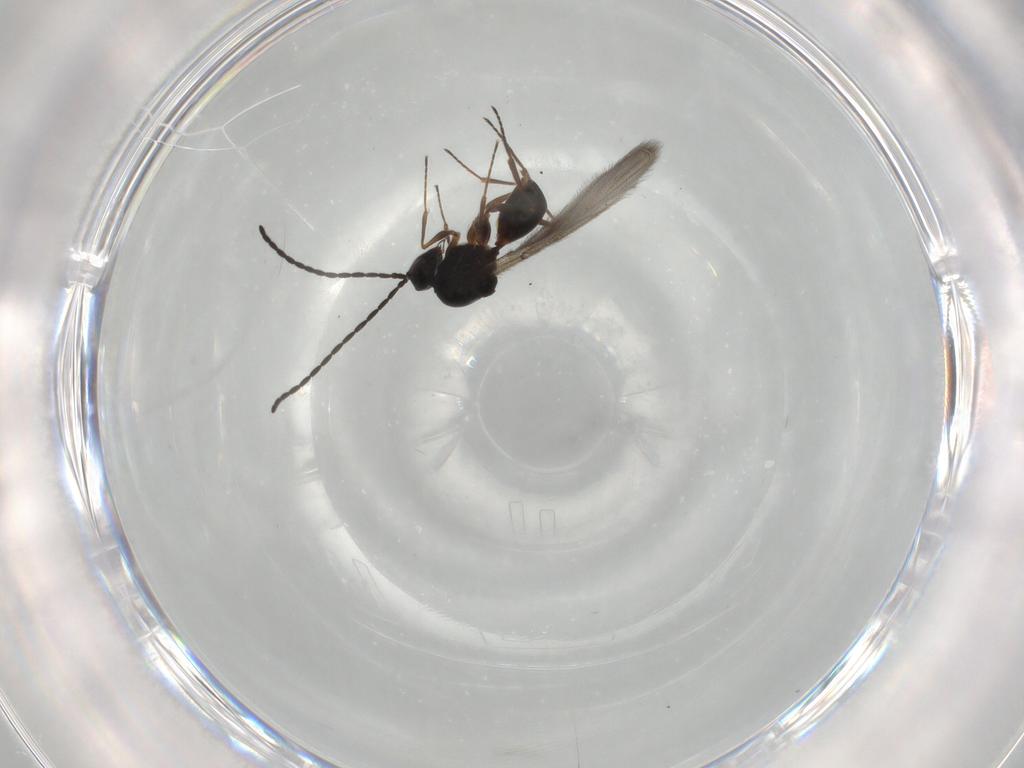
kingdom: Animalia
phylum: Arthropoda
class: Insecta
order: Hymenoptera
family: Figitidae
